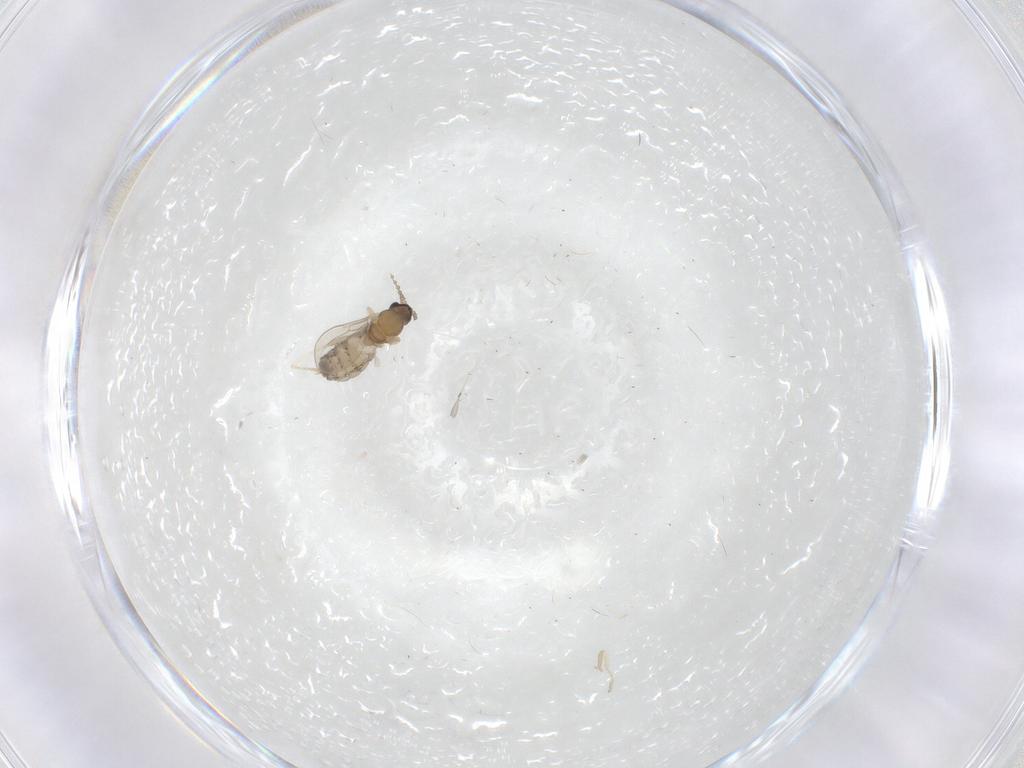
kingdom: Animalia
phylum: Arthropoda
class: Insecta
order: Diptera
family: Cecidomyiidae
